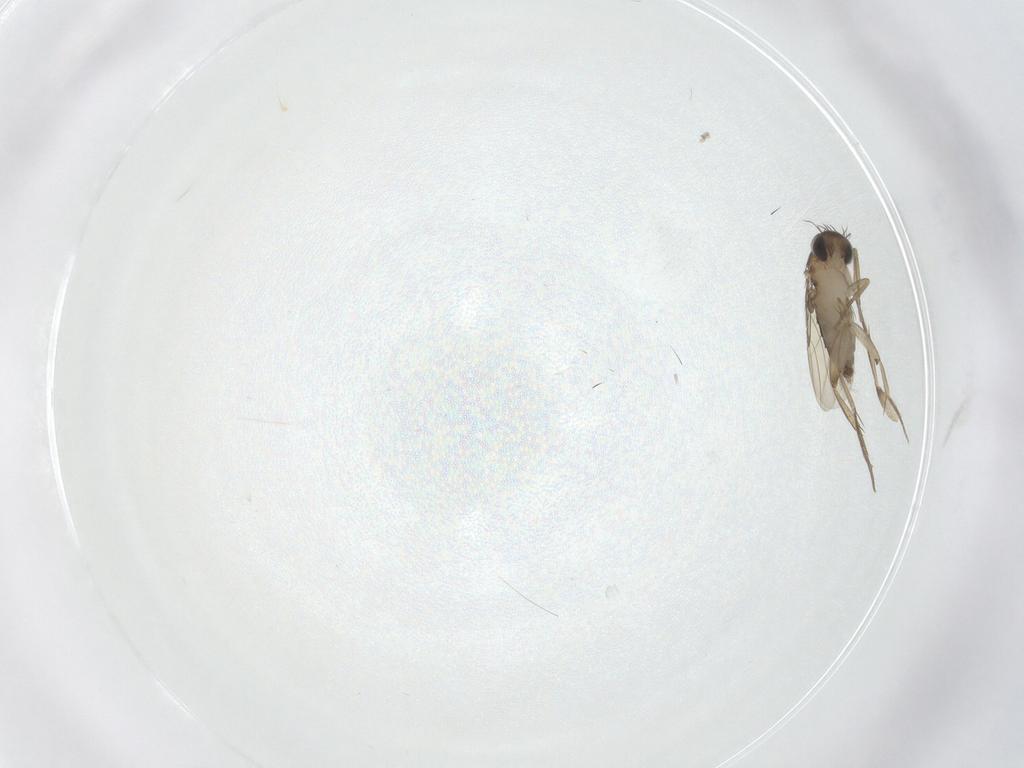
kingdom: Animalia
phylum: Arthropoda
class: Insecta
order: Diptera
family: Phoridae
